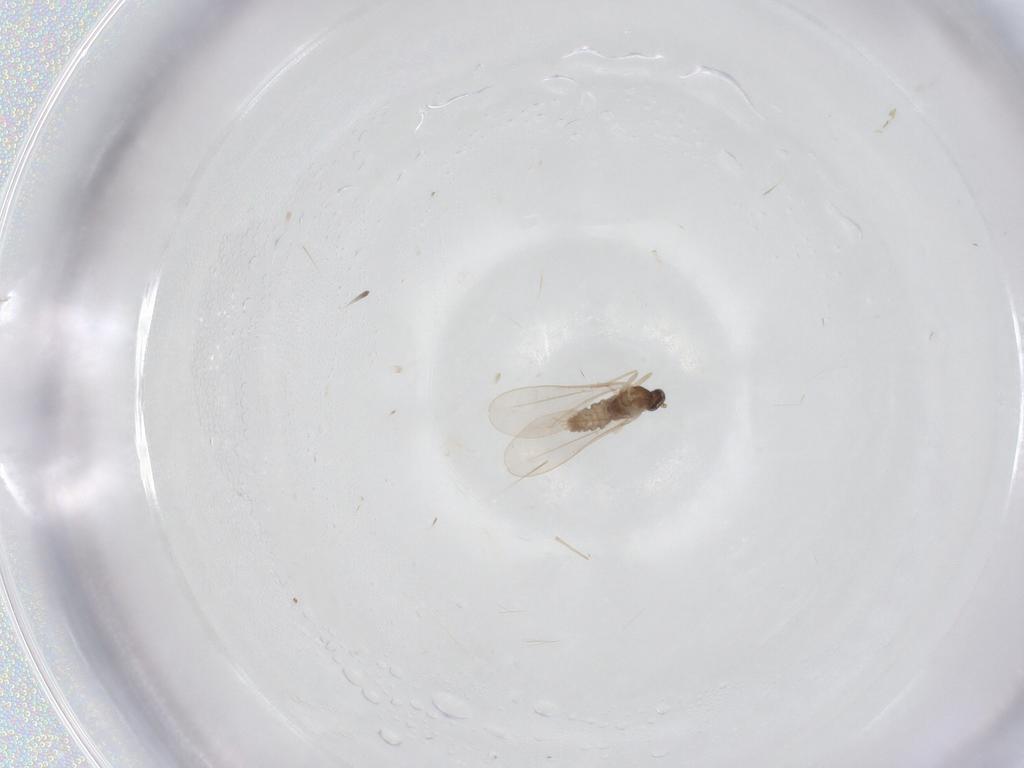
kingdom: Animalia
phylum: Arthropoda
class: Insecta
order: Diptera
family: Cecidomyiidae
